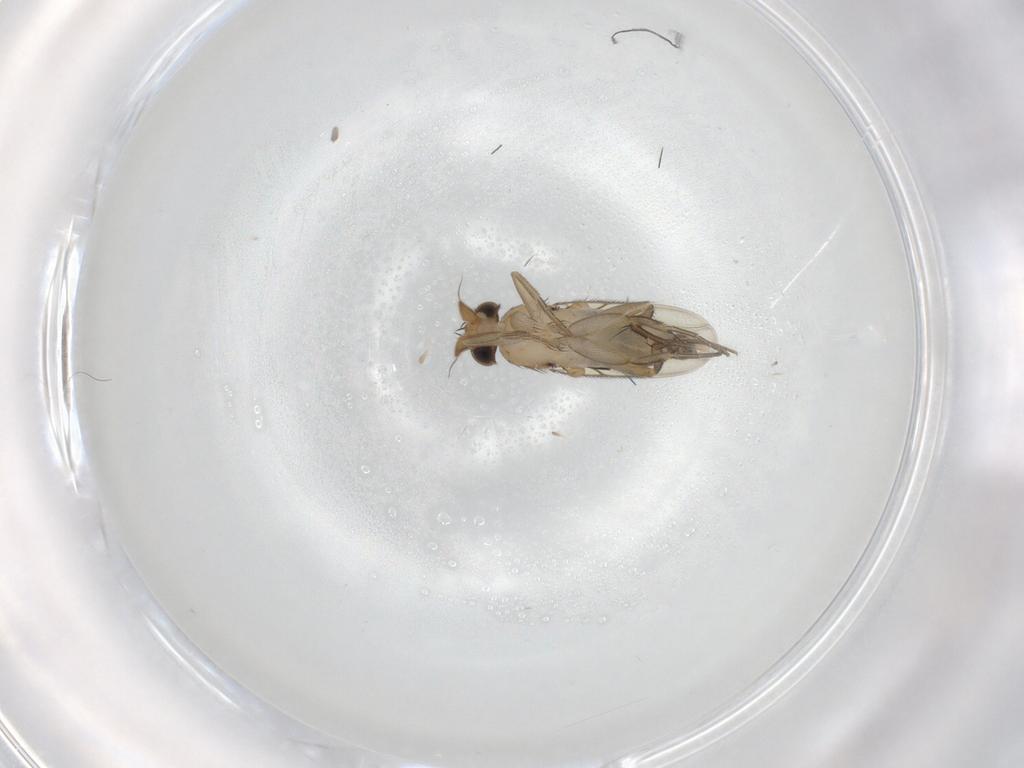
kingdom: Animalia
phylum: Arthropoda
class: Insecta
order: Diptera
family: Phoridae
